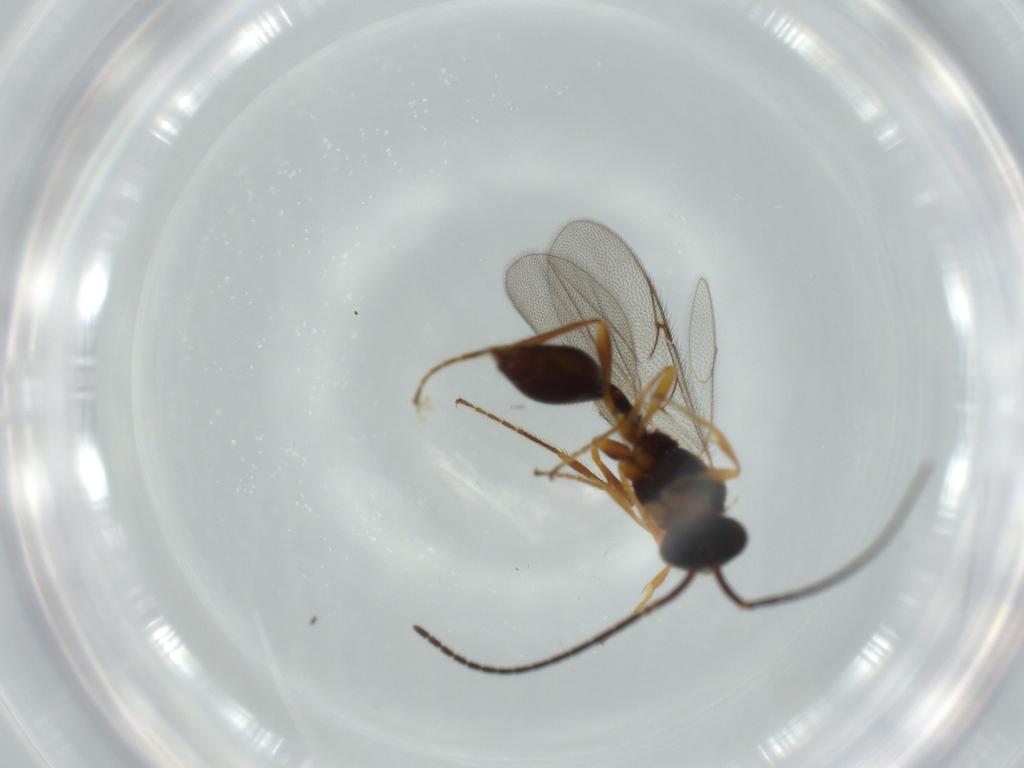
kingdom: Animalia
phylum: Arthropoda
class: Insecta
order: Hymenoptera
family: Diapriidae
